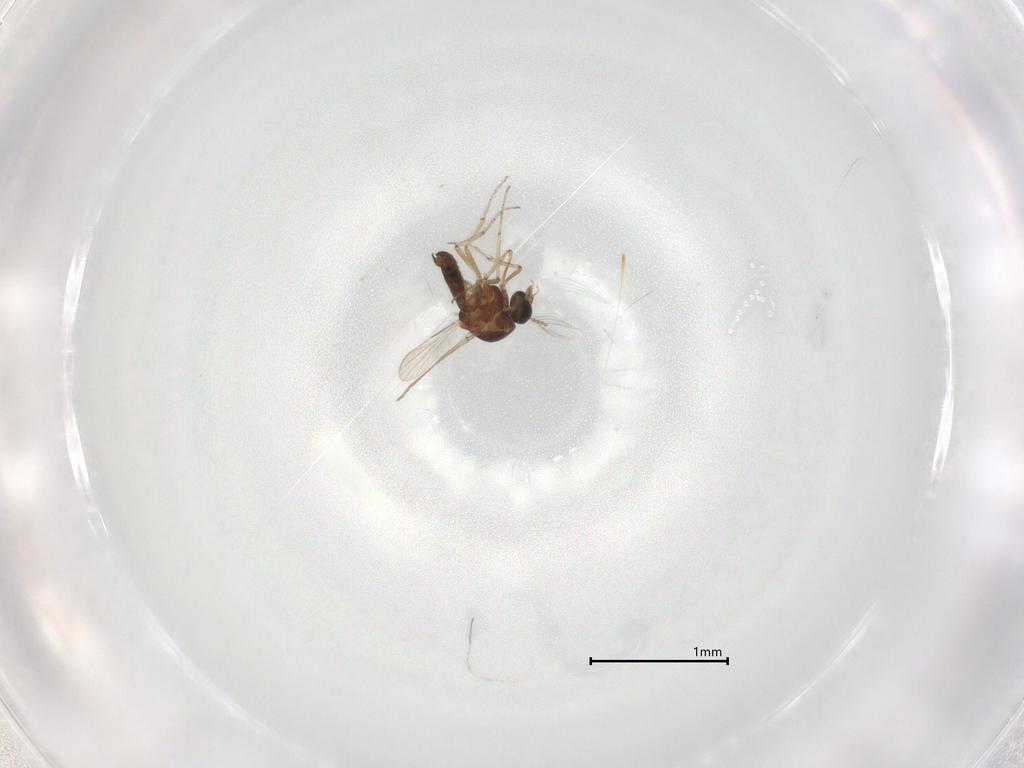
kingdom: Animalia
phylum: Arthropoda
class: Insecta
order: Diptera
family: Ceratopogonidae
